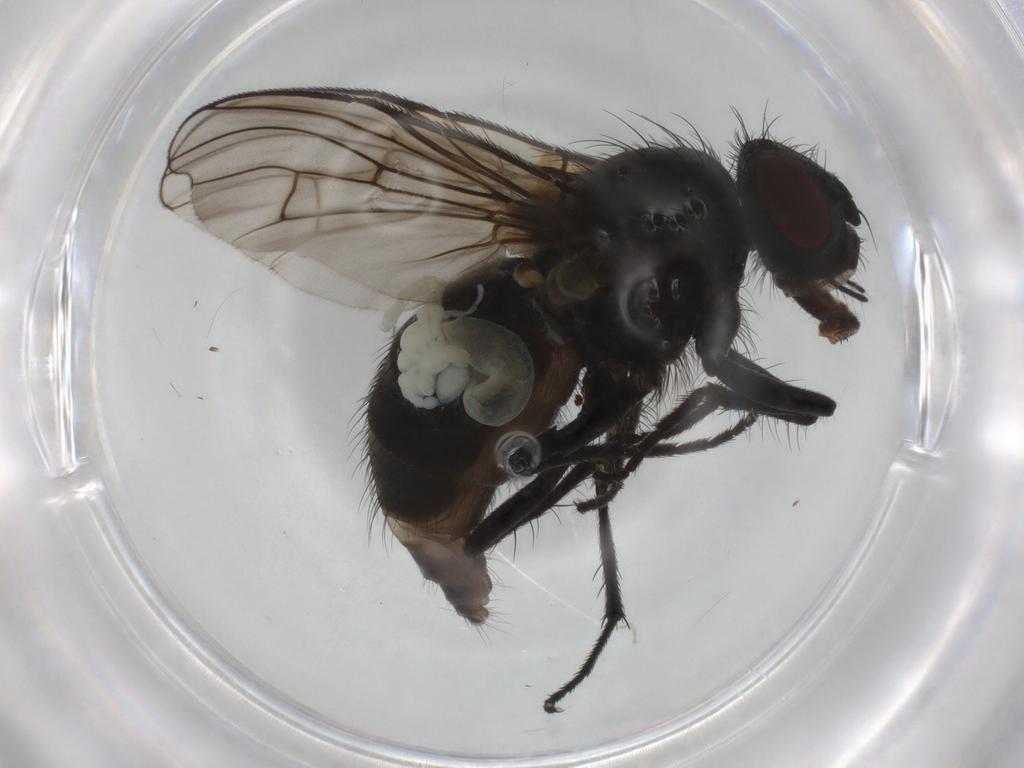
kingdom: Animalia
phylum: Arthropoda
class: Insecta
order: Diptera
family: Muscidae
